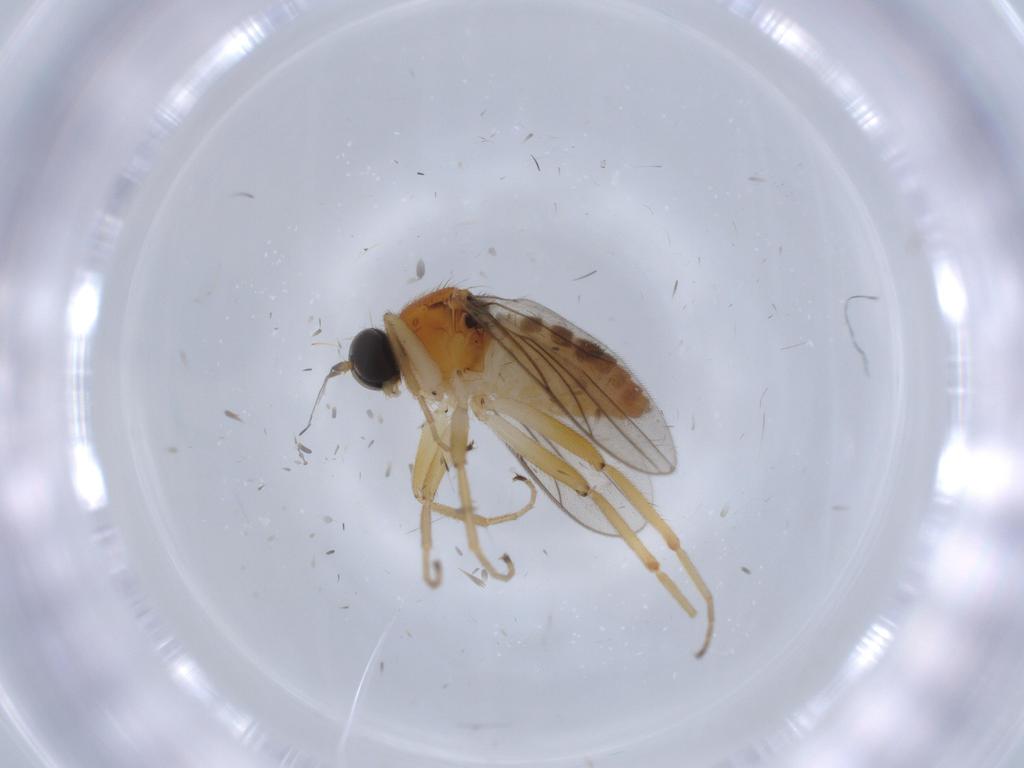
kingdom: Animalia
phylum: Arthropoda
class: Insecta
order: Diptera
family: Hybotidae
